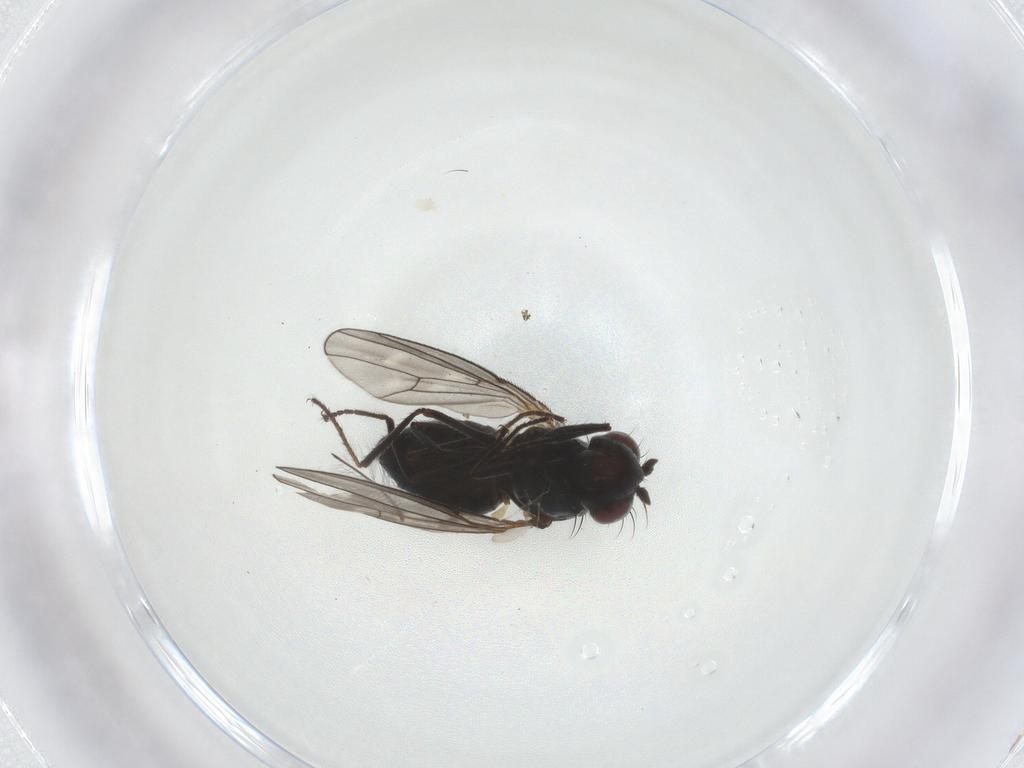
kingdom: Animalia
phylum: Arthropoda
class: Insecta
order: Diptera
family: Ephydridae
